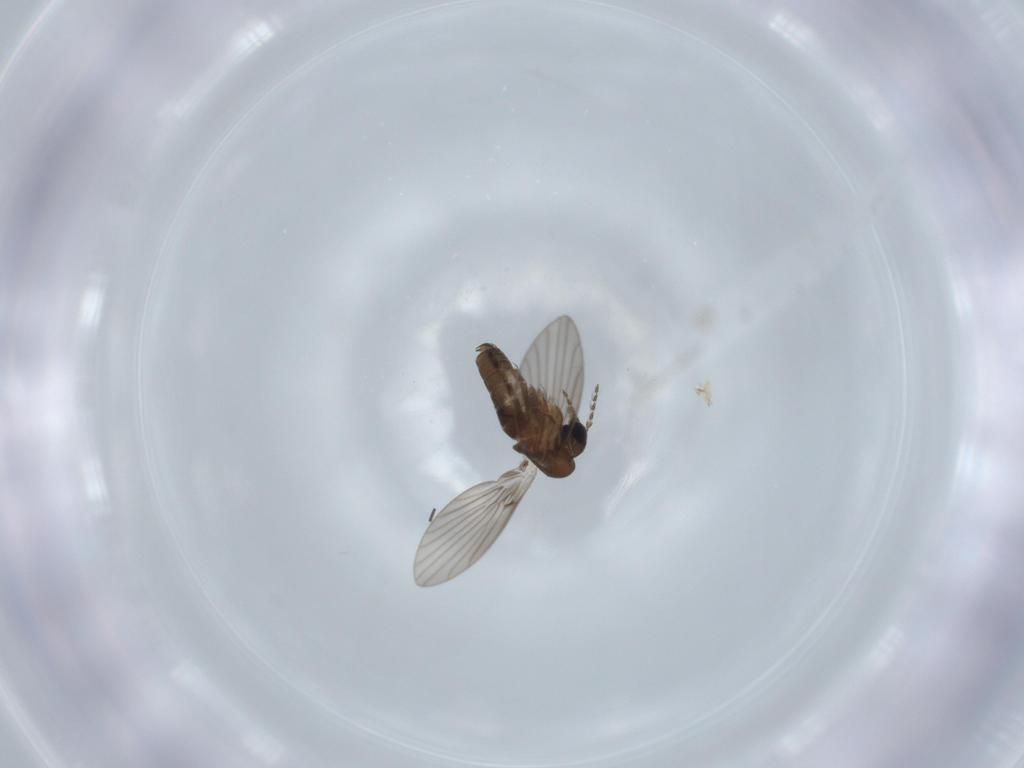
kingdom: Animalia
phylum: Arthropoda
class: Insecta
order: Diptera
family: Ceratopogonidae
